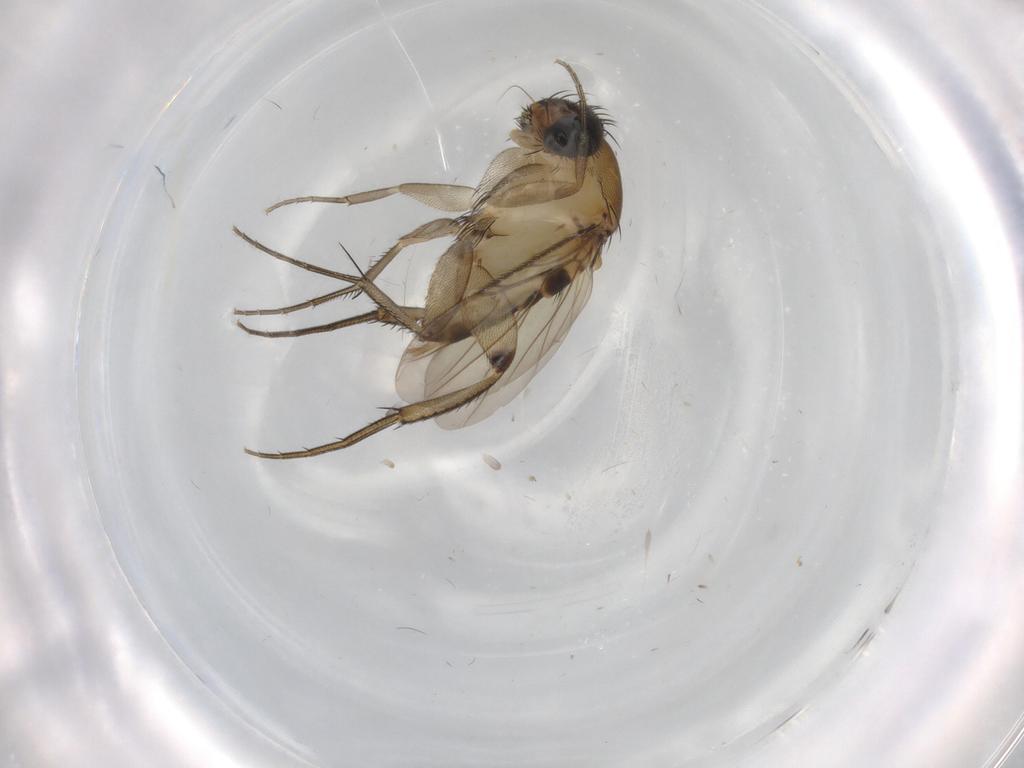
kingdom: Animalia
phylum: Arthropoda
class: Insecta
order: Diptera
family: Phoridae
